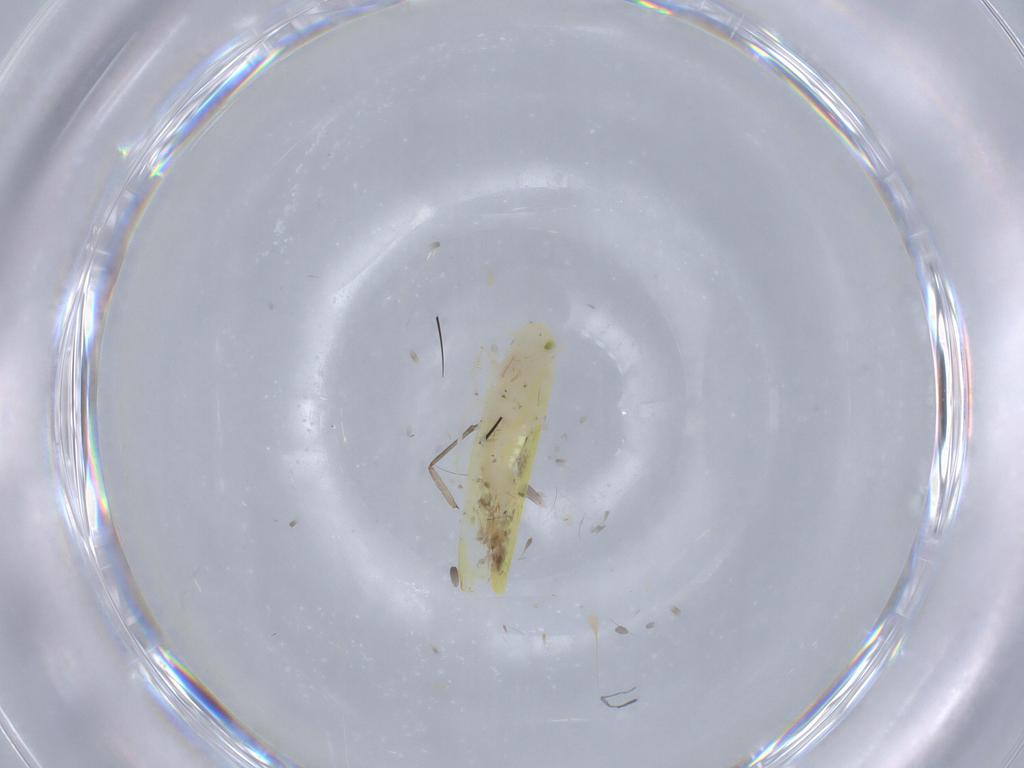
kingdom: Animalia
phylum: Arthropoda
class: Insecta
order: Hemiptera
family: Cicadellidae
